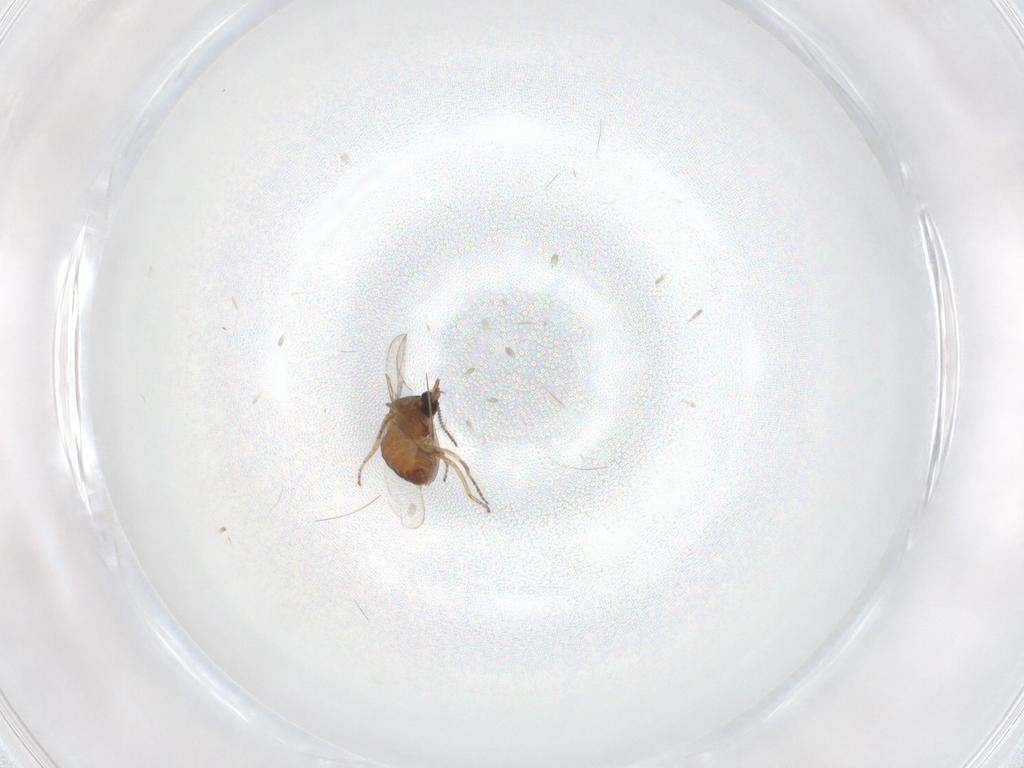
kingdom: Animalia
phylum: Arthropoda
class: Insecta
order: Diptera
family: Ceratopogonidae
